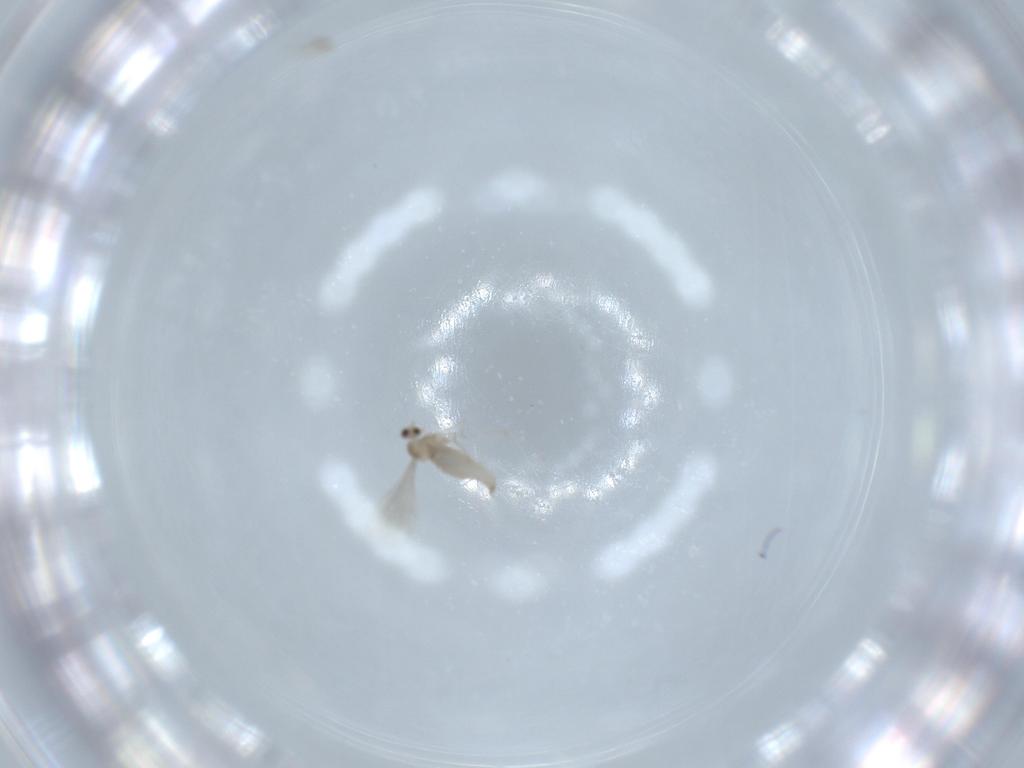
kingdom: Animalia
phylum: Arthropoda
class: Insecta
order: Diptera
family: Cecidomyiidae
